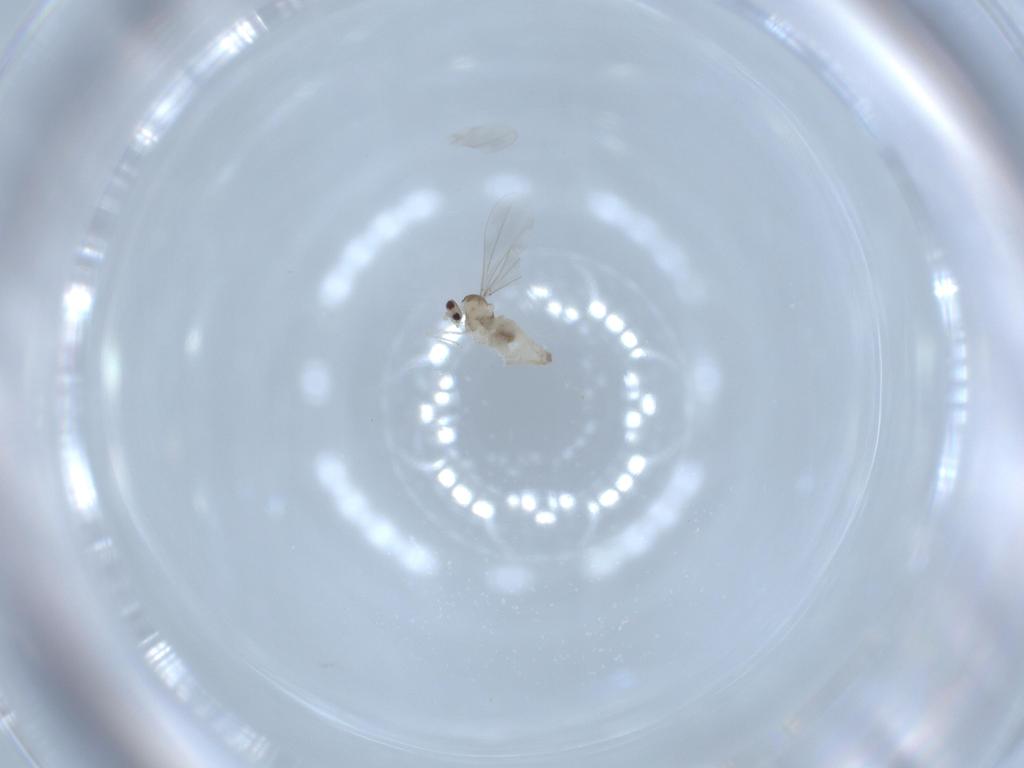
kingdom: Animalia
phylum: Arthropoda
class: Insecta
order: Diptera
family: Cecidomyiidae
